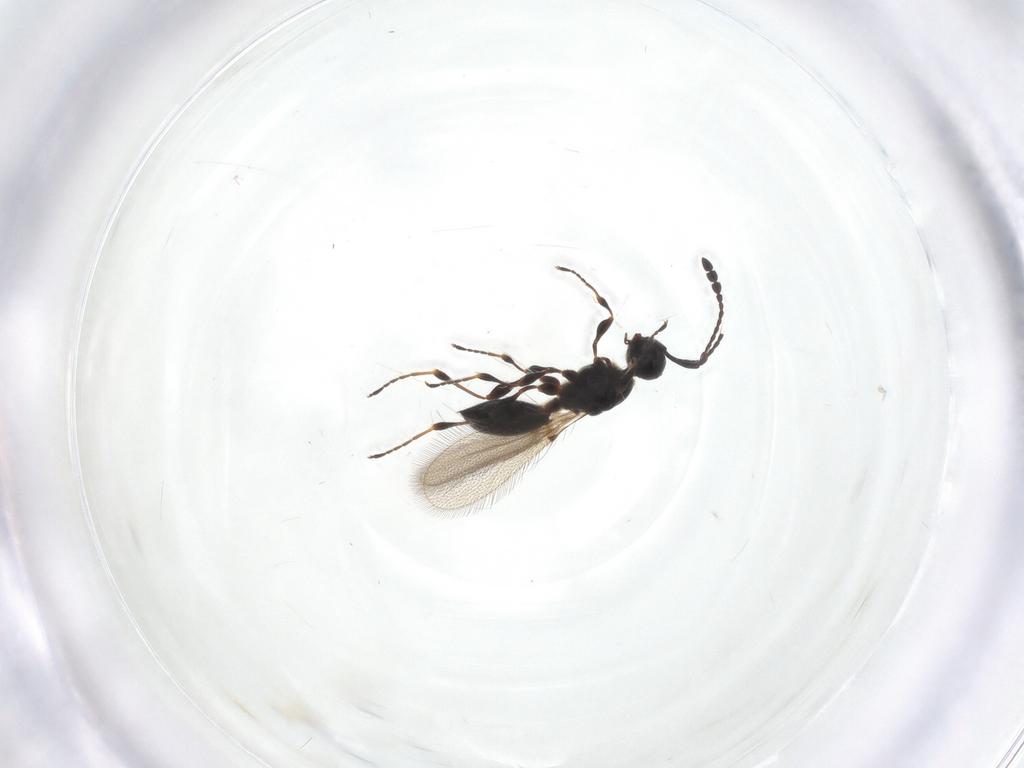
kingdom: Animalia
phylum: Arthropoda
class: Insecta
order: Hymenoptera
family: Diapriidae
